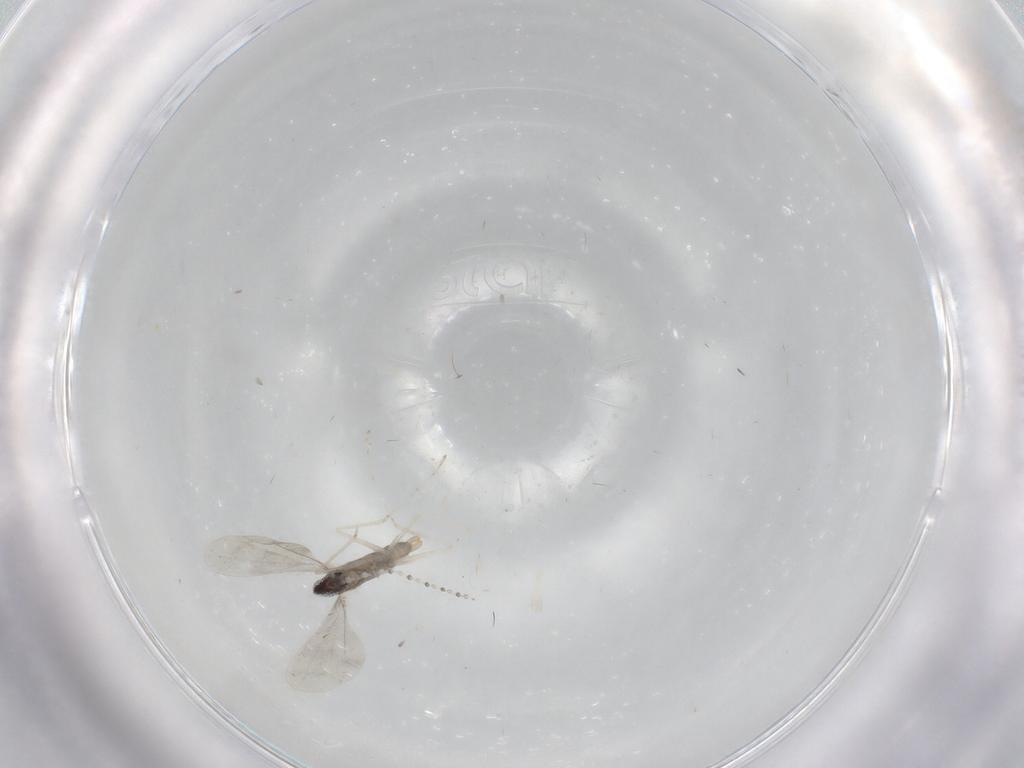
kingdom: Animalia
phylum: Arthropoda
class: Insecta
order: Diptera
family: Cecidomyiidae
